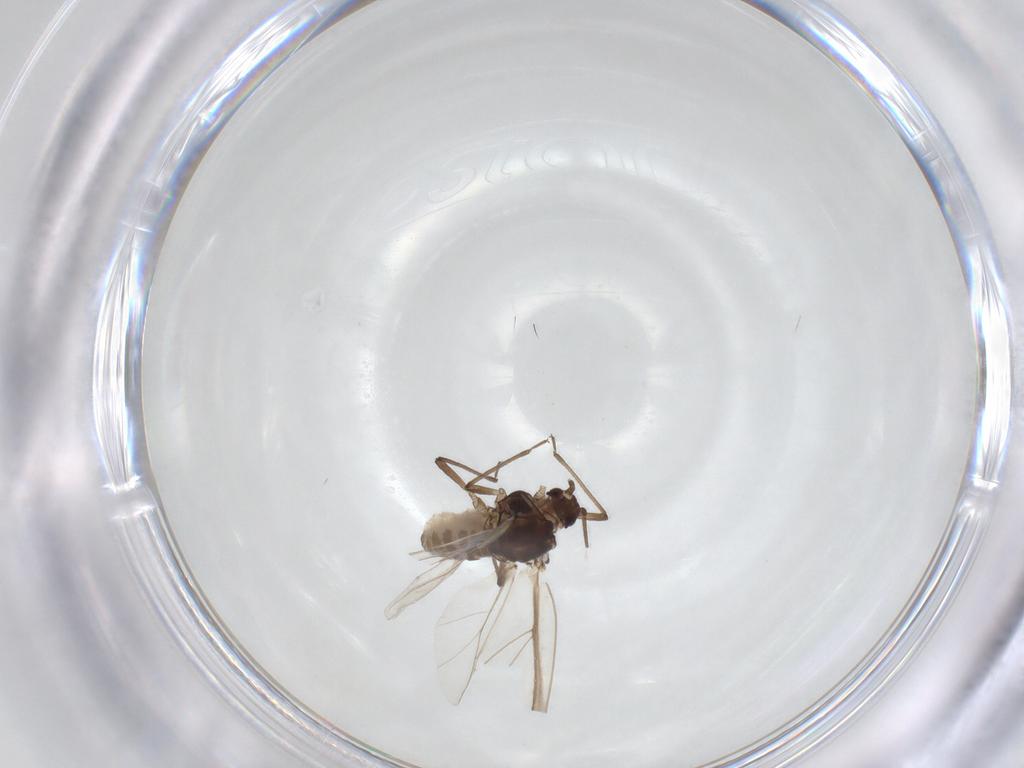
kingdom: Animalia
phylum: Arthropoda
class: Insecta
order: Hemiptera
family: Aphididae
